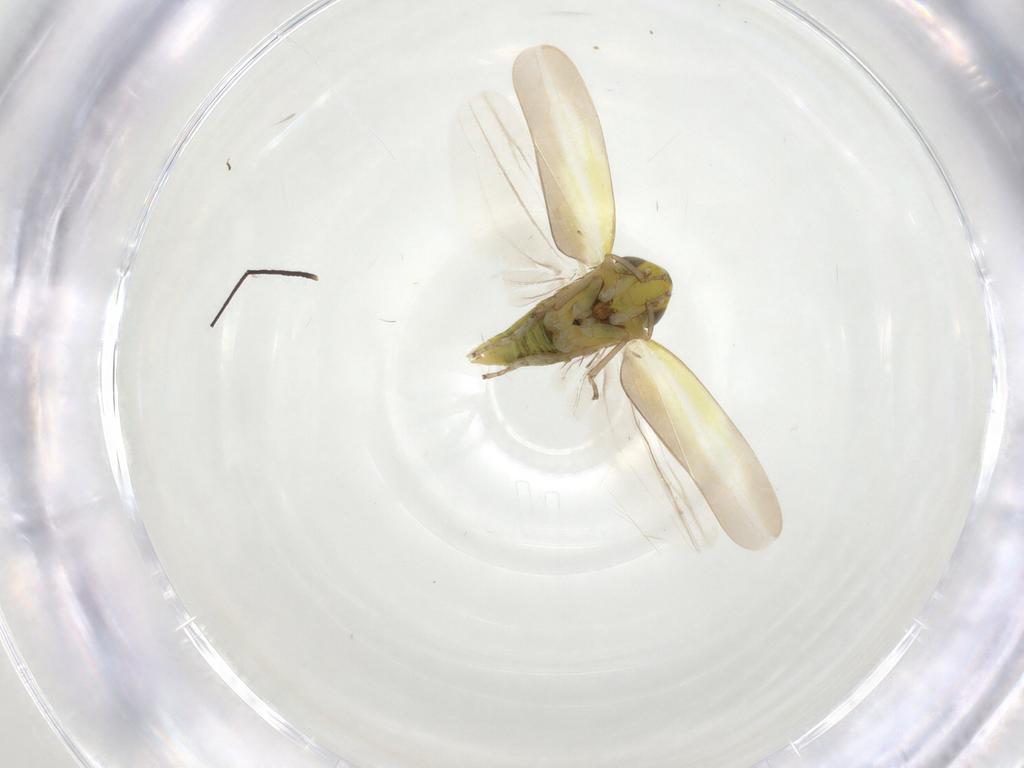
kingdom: Animalia
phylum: Arthropoda
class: Insecta
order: Hemiptera
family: Cicadellidae
